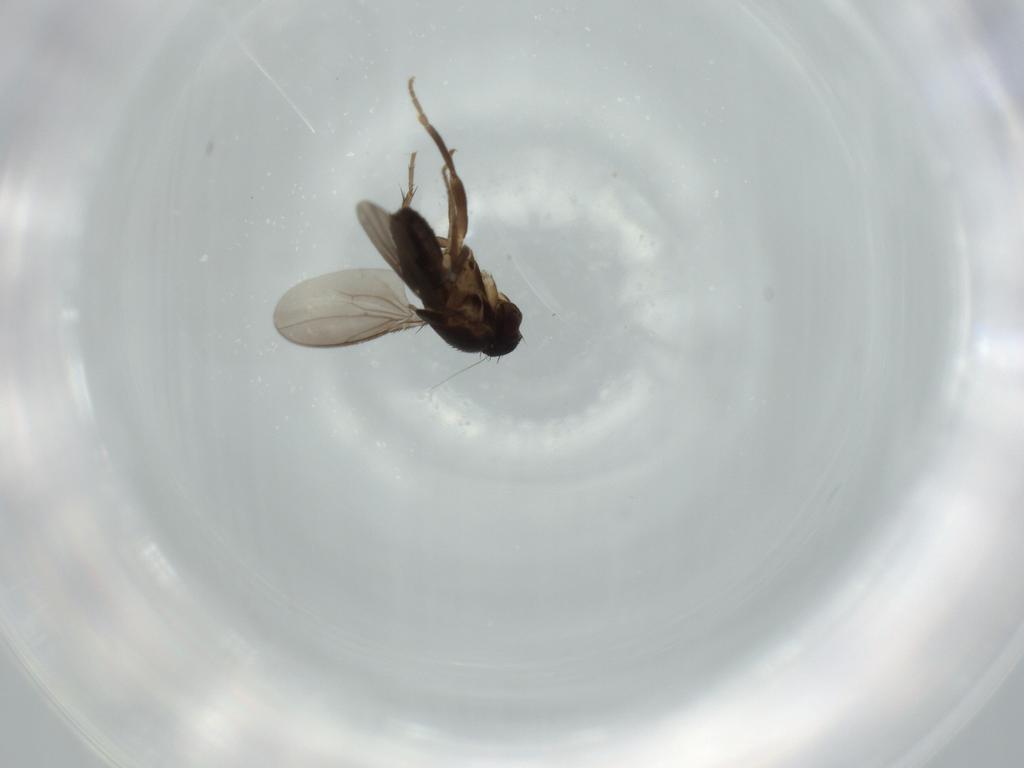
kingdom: Animalia
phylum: Arthropoda
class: Insecta
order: Diptera
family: Sphaeroceridae
